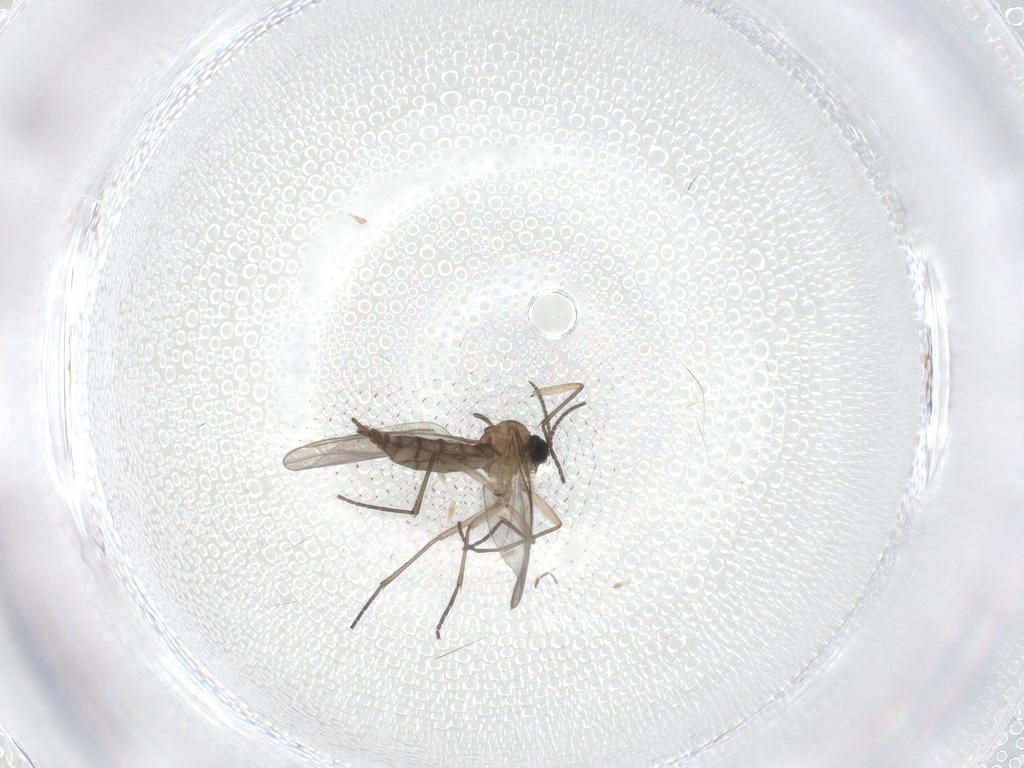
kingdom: Animalia
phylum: Arthropoda
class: Insecta
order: Diptera
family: Sciaridae
